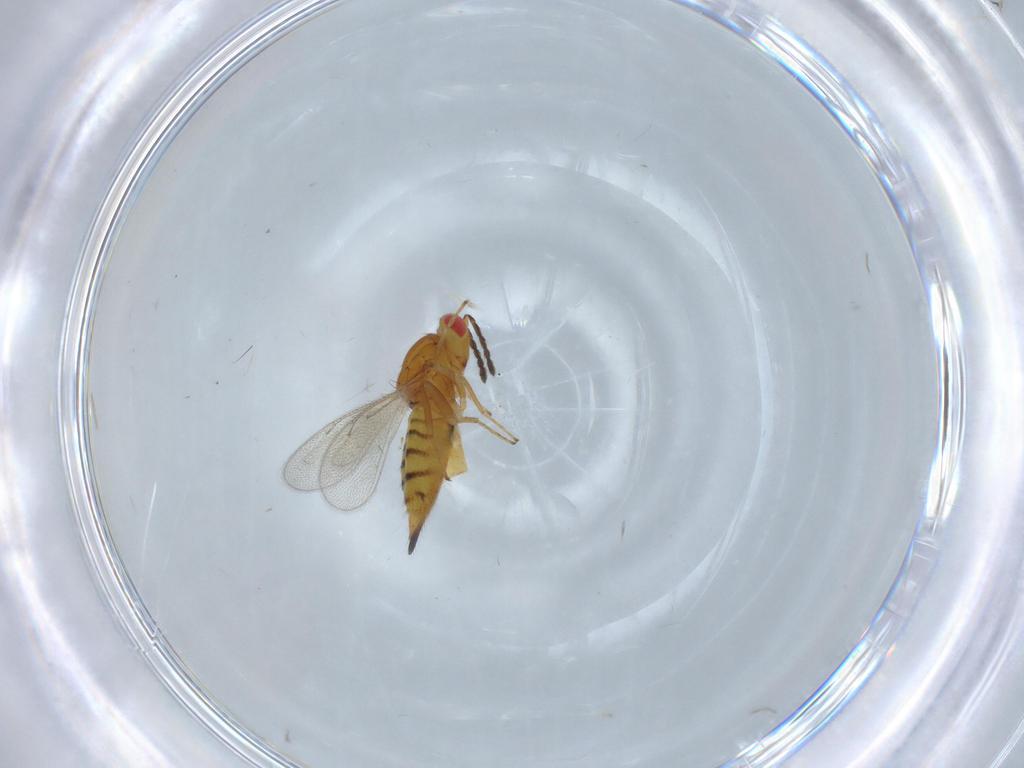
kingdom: Animalia
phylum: Arthropoda
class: Insecta
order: Hymenoptera
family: Eulophidae
